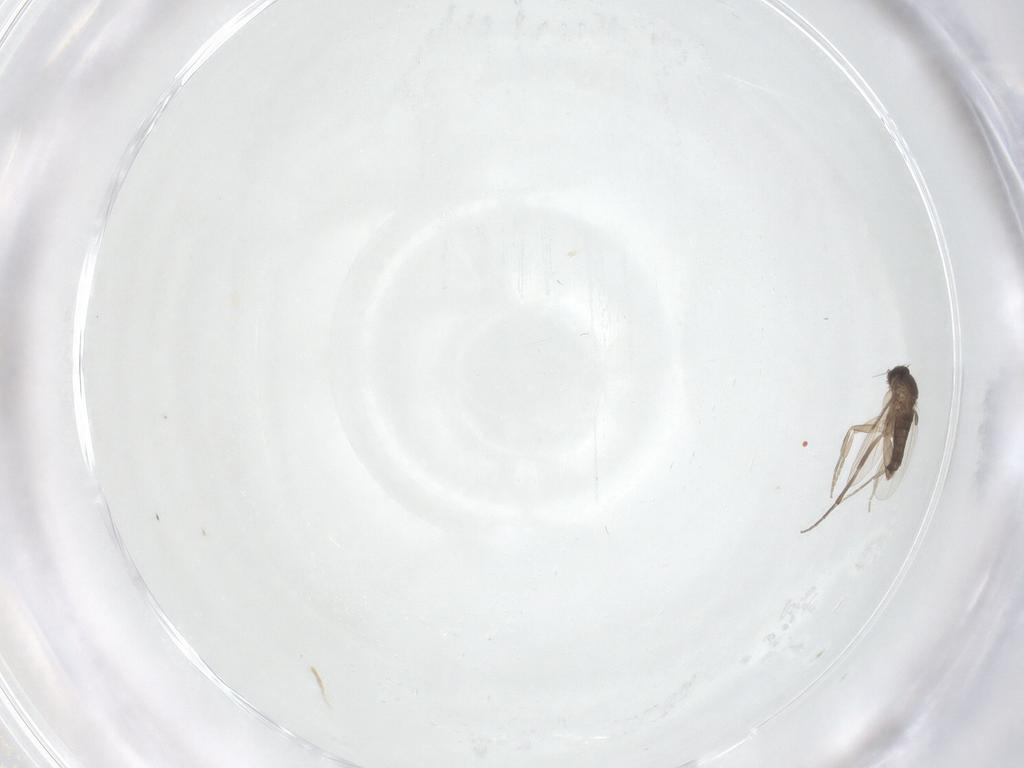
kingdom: Animalia
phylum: Arthropoda
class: Insecta
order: Diptera
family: Phoridae
